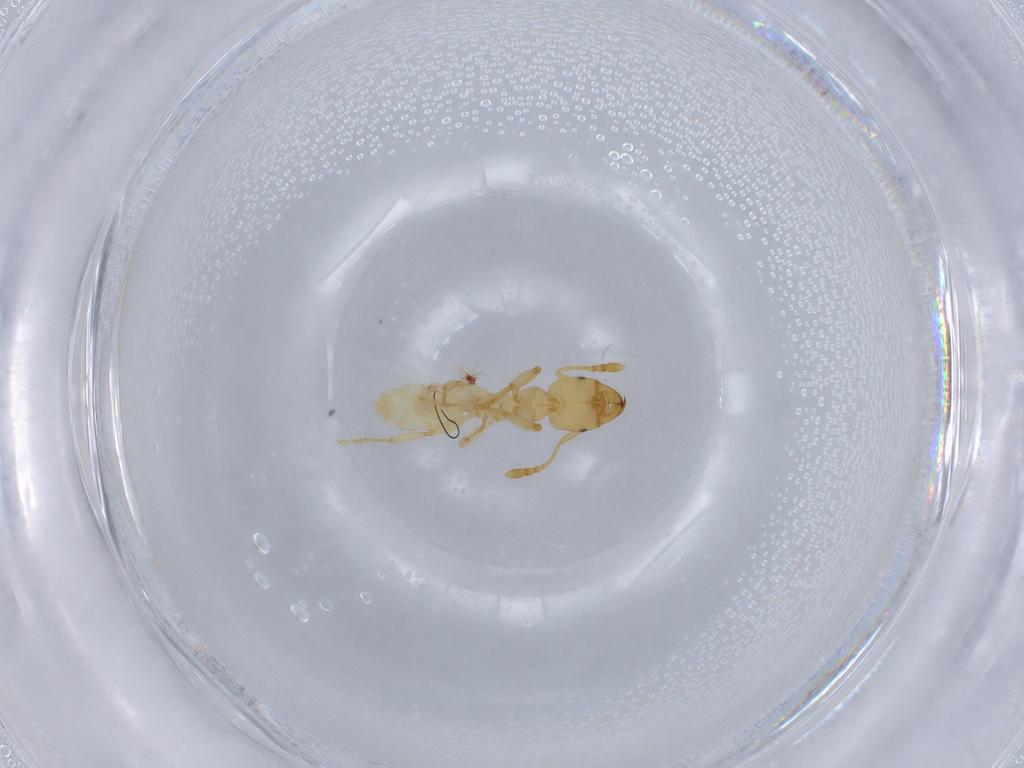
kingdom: Animalia
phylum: Arthropoda
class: Insecta
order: Hymenoptera
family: Formicidae
